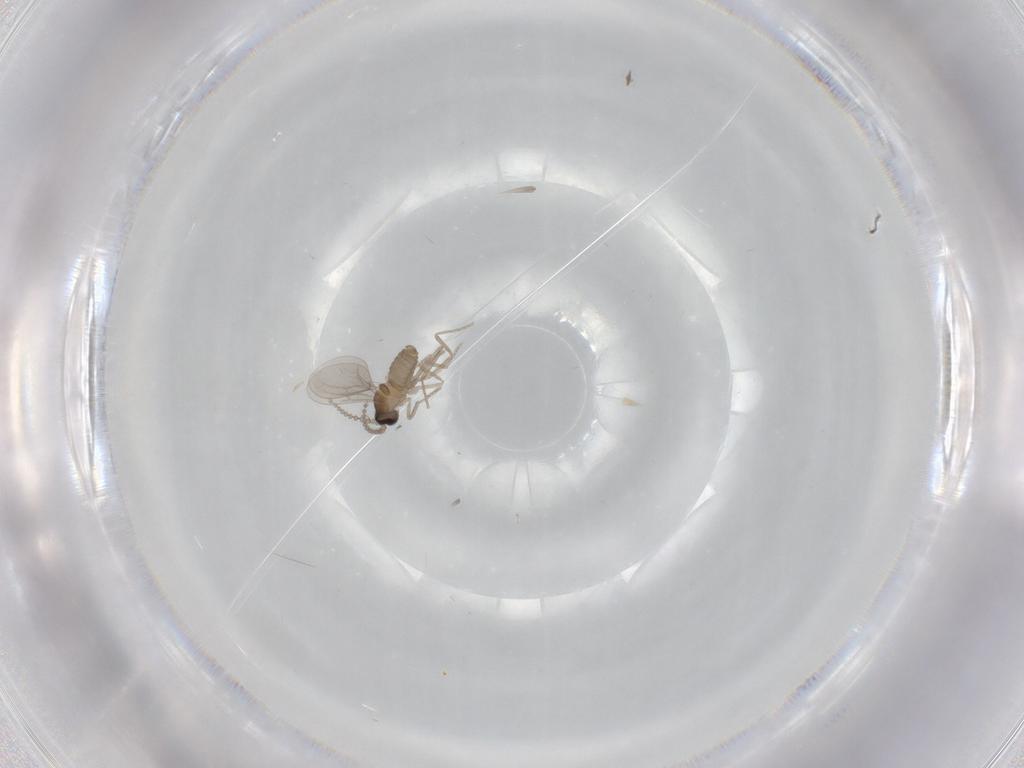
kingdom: Animalia
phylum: Arthropoda
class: Insecta
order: Diptera
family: Cecidomyiidae
